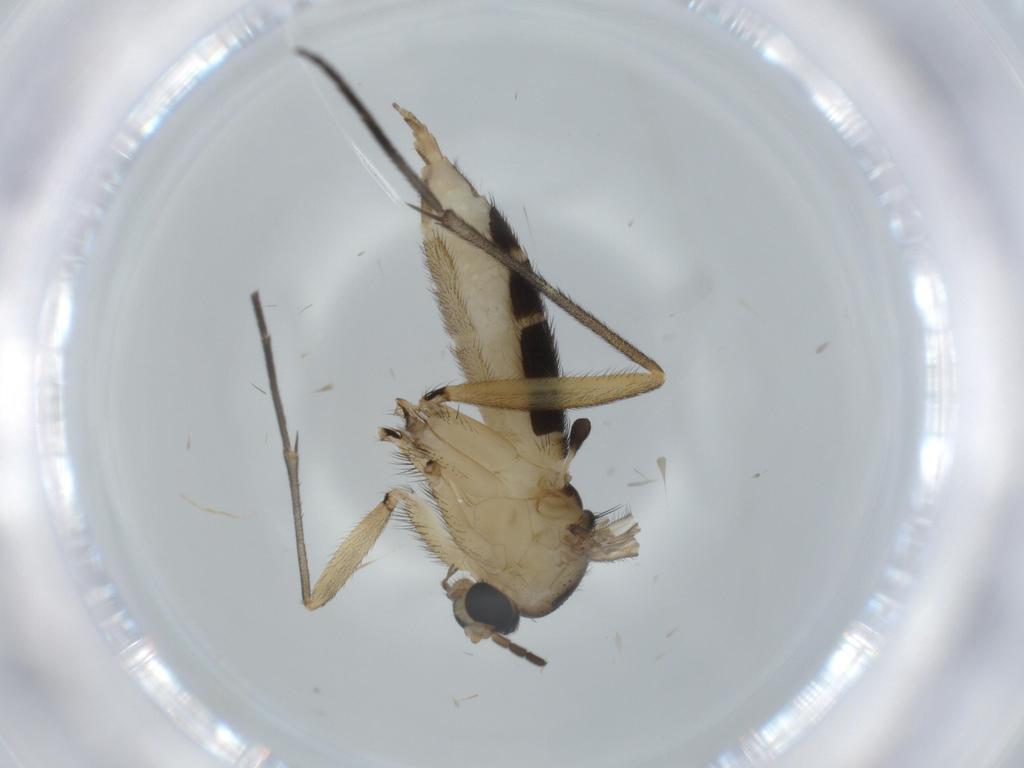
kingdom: Animalia
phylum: Arthropoda
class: Insecta
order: Diptera
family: Sciaridae
